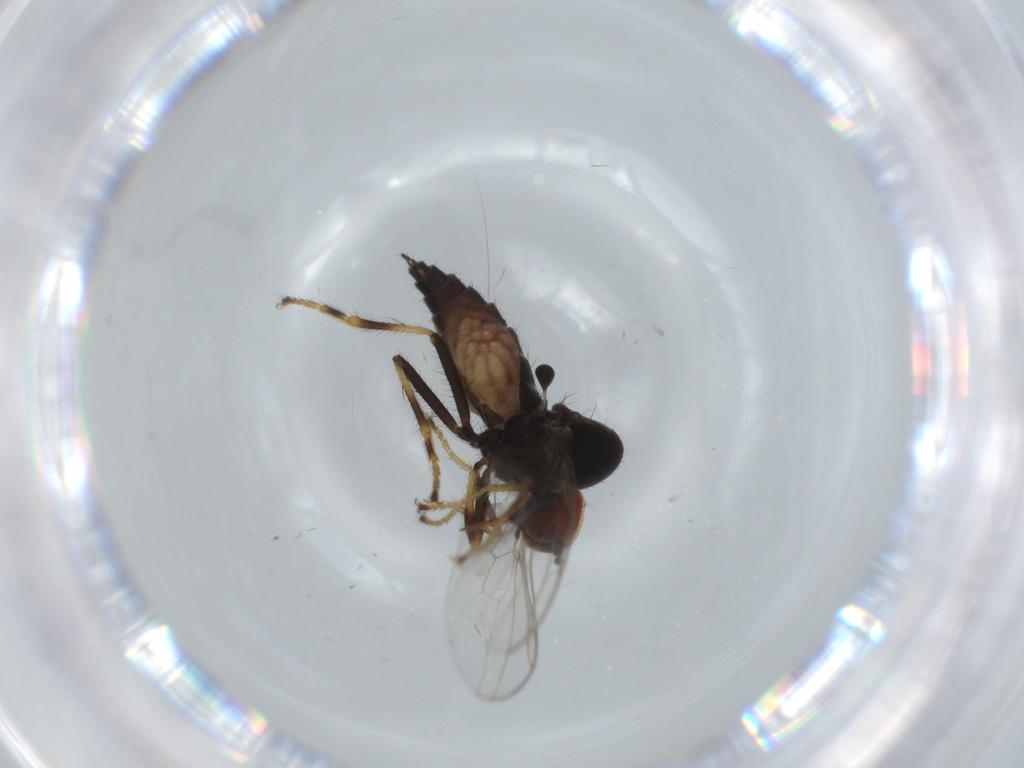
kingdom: Animalia
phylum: Arthropoda
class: Insecta
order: Diptera
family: Hybotidae
